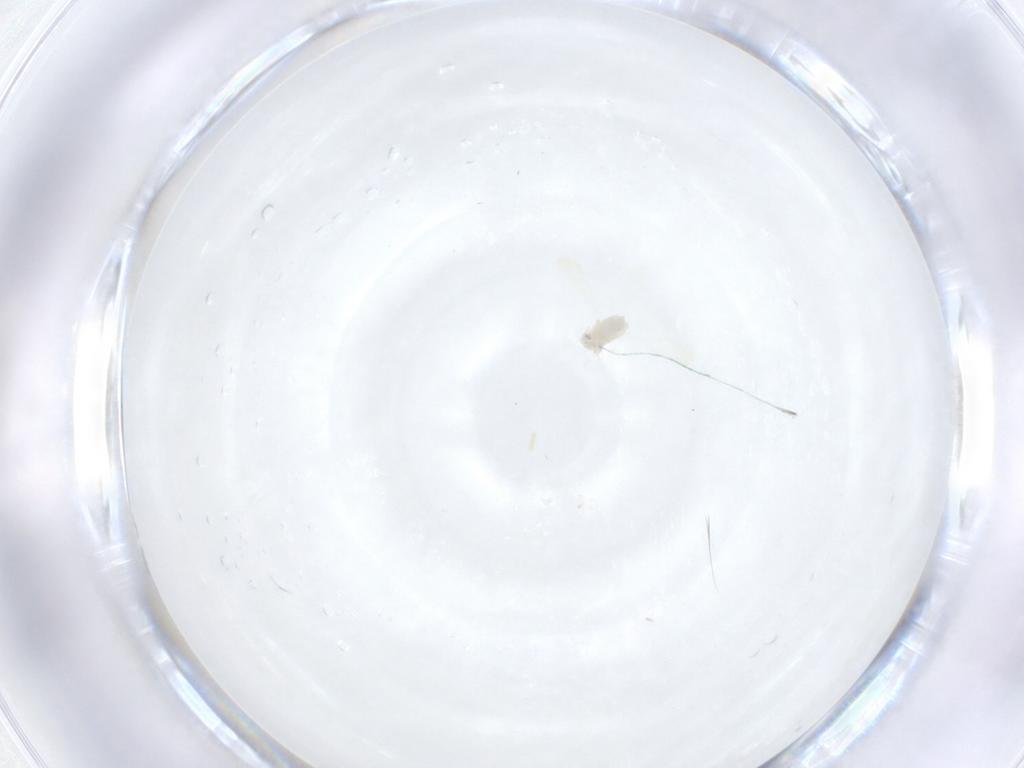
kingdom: Animalia
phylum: Arthropoda
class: Insecta
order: Hemiptera
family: Aleyrodidae
